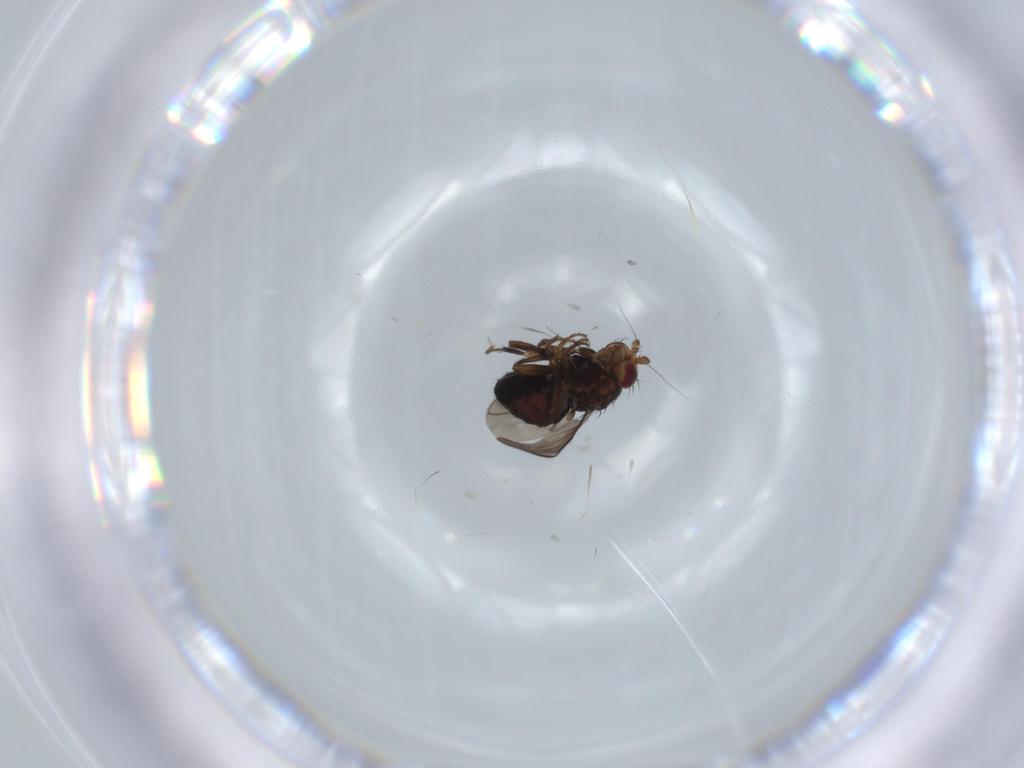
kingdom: Animalia
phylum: Arthropoda
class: Insecta
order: Diptera
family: Sphaeroceridae
